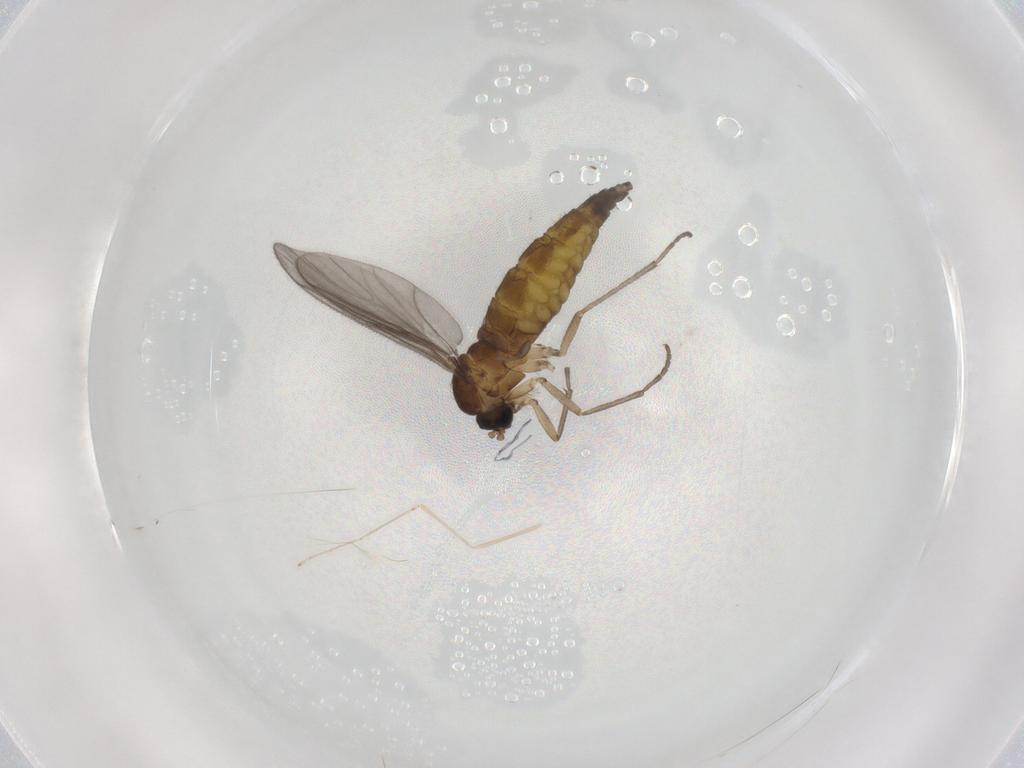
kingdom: Animalia
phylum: Arthropoda
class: Insecta
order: Diptera
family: Sciaridae
